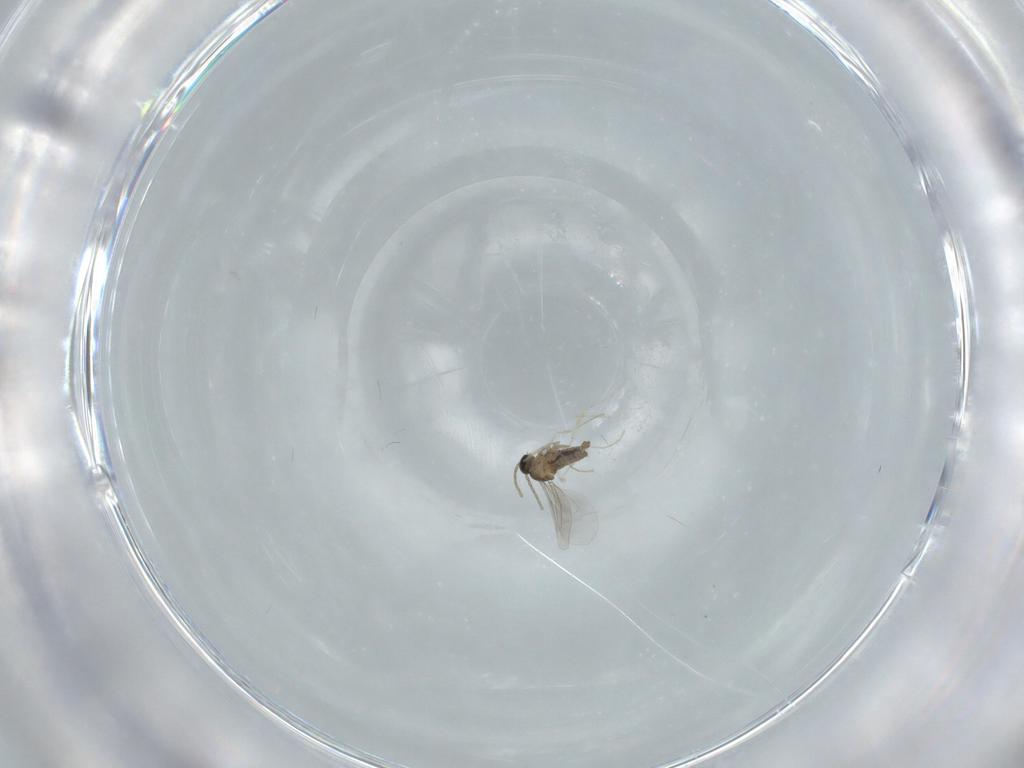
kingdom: Animalia
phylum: Arthropoda
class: Insecta
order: Diptera
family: Cecidomyiidae
